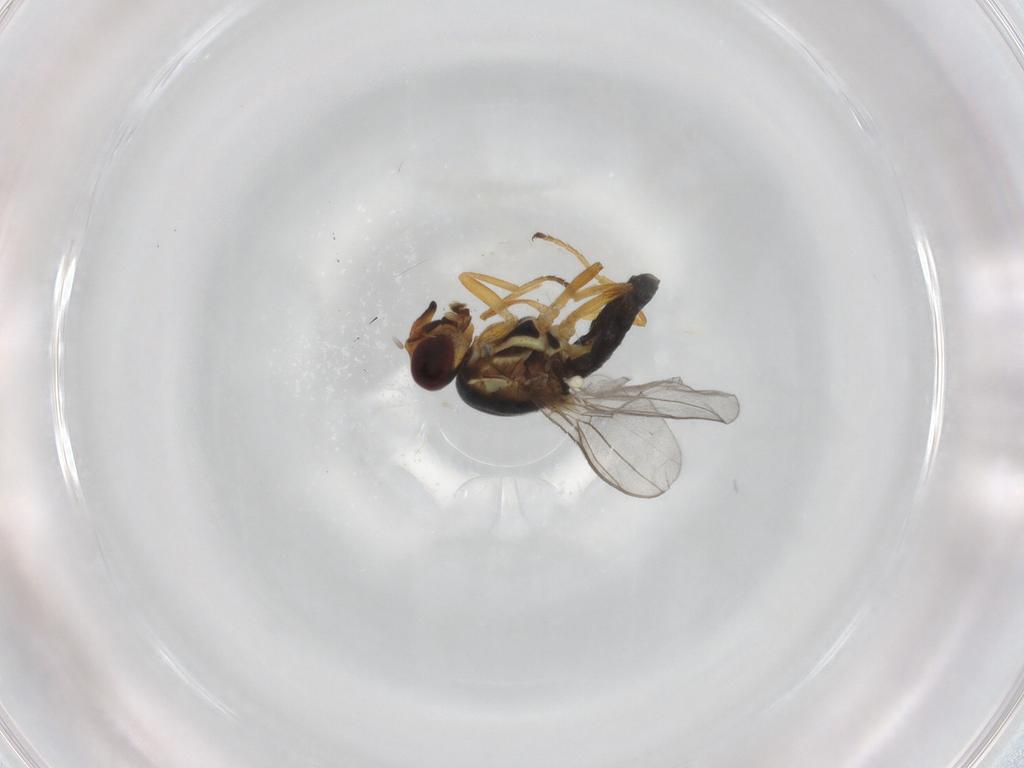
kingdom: Animalia
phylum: Arthropoda
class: Insecta
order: Diptera
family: Chloropidae
